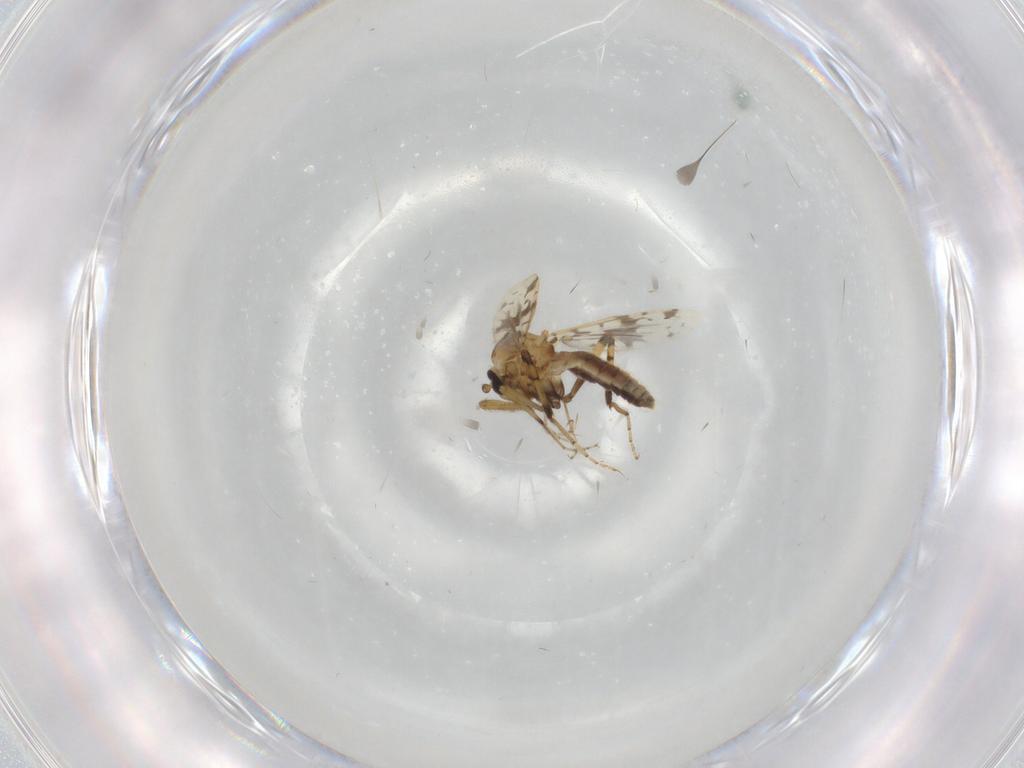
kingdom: Animalia
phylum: Arthropoda
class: Insecta
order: Diptera
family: Ceratopogonidae
